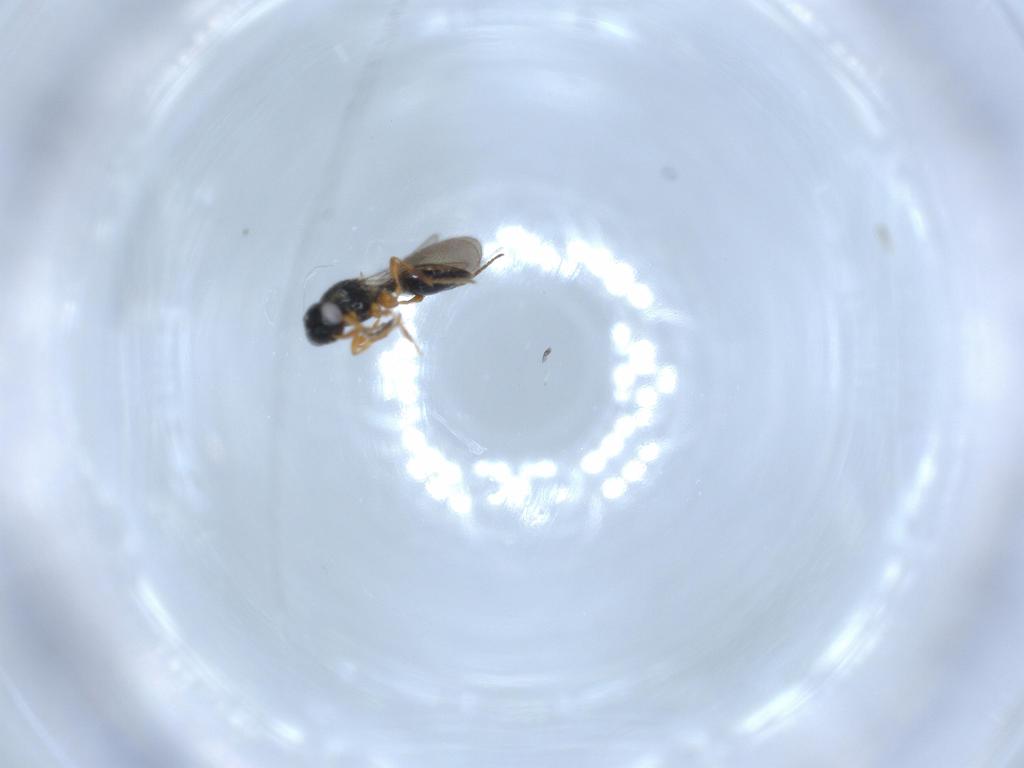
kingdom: Animalia
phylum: Arthropoda
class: Insecta
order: Hymenoptera
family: Platygastridae
